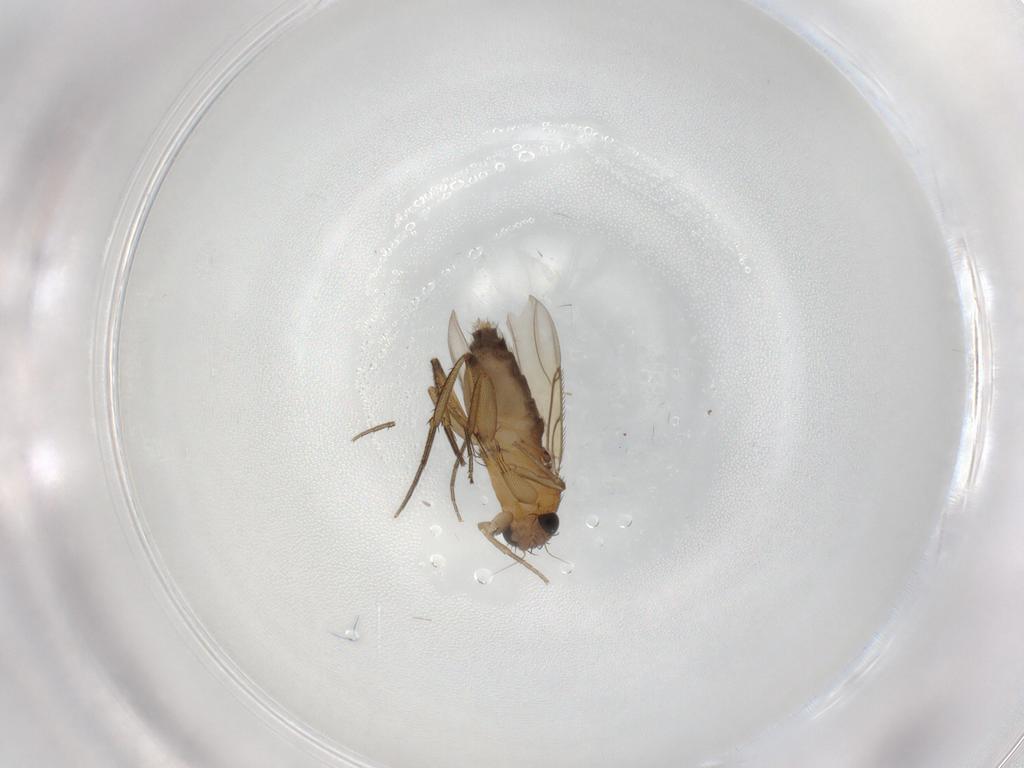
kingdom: Animalia
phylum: Arthropoda
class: Insecta
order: Diptera
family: Phoridae
